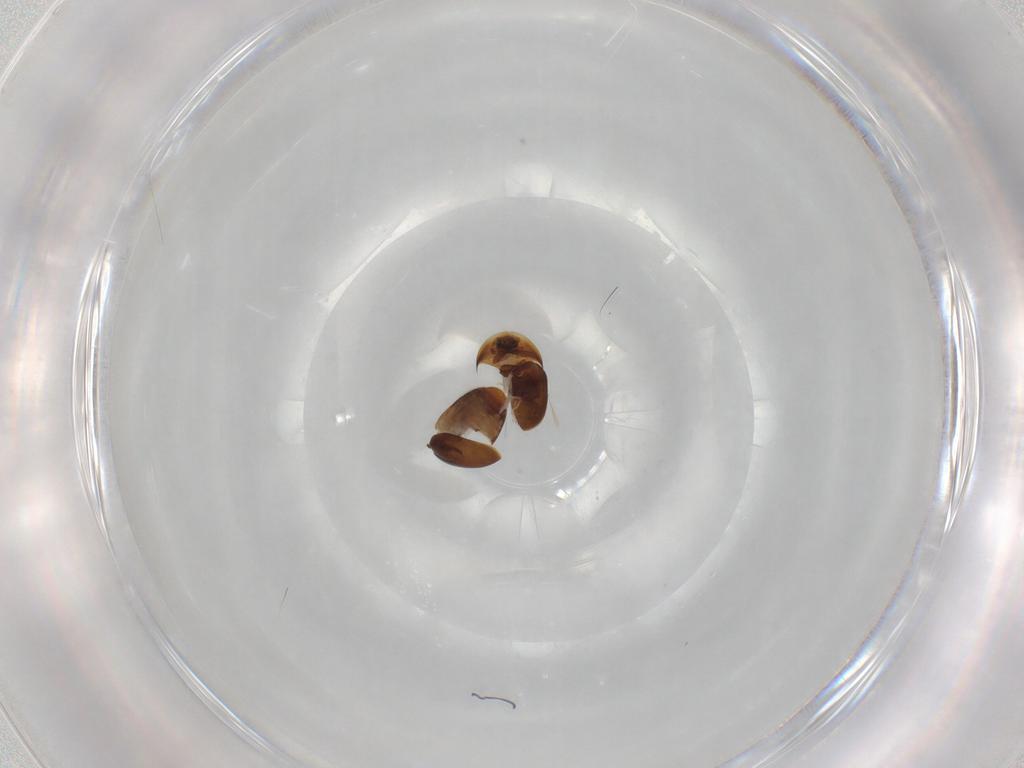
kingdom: Animalia
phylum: Arthropoda
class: Insecta
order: Coleoptera
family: Corylophidae
